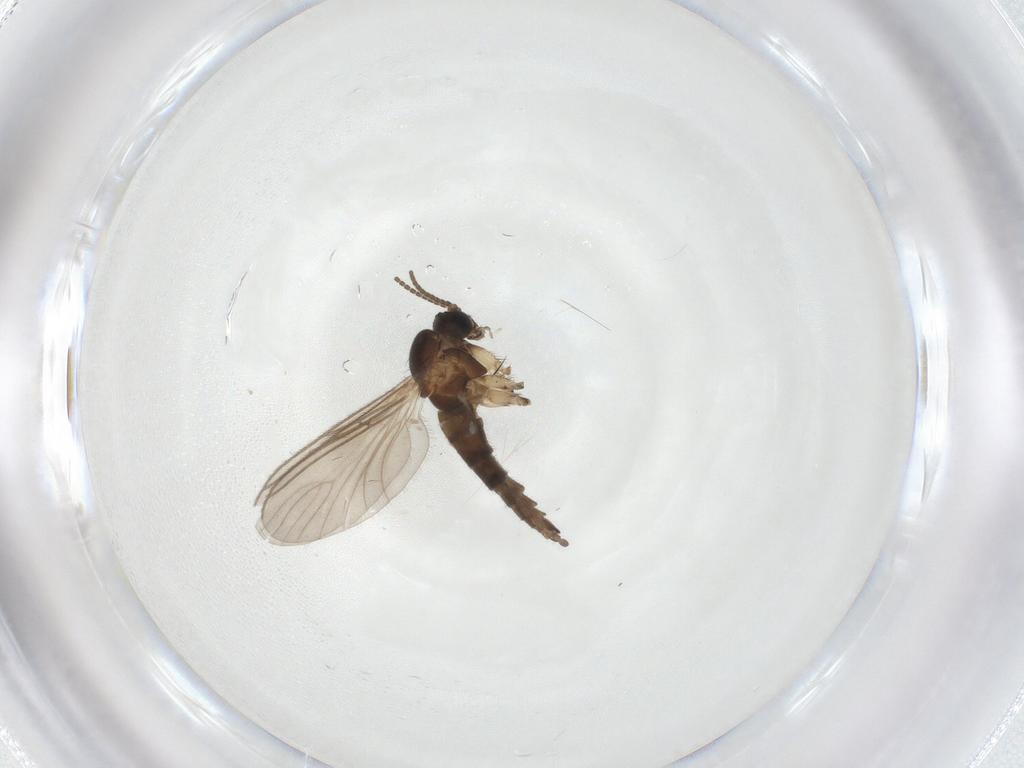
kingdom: Animalia
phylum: Arthropoda
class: Insecta
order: Diptera
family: Sciaridae
